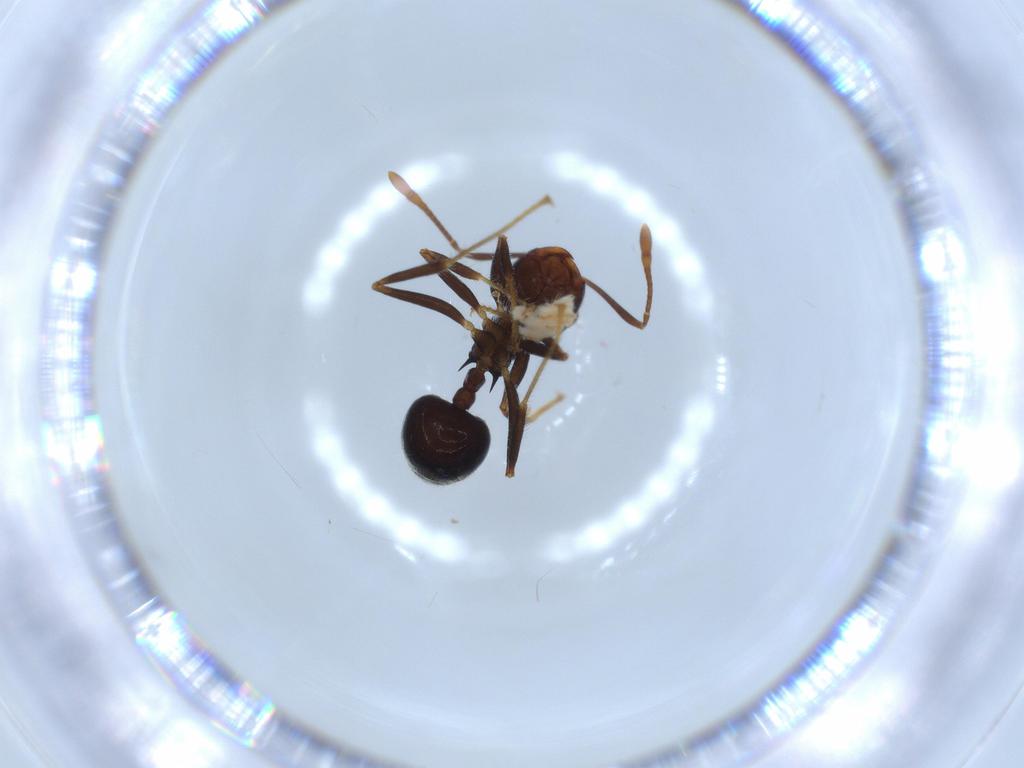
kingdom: Animalia
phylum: Arthropoda
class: Insecta
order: Hymenoptera
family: Formicidae
